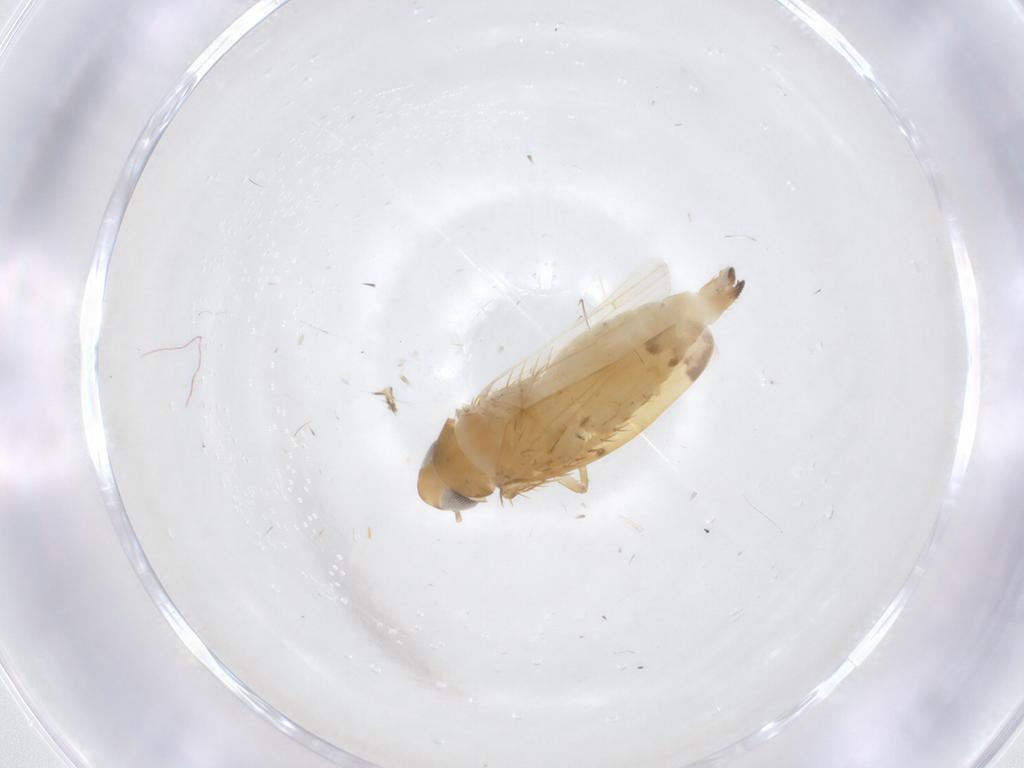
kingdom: Animalia
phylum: Arthropoda
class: Insecta
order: Hemiptera
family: Cicadellidae
